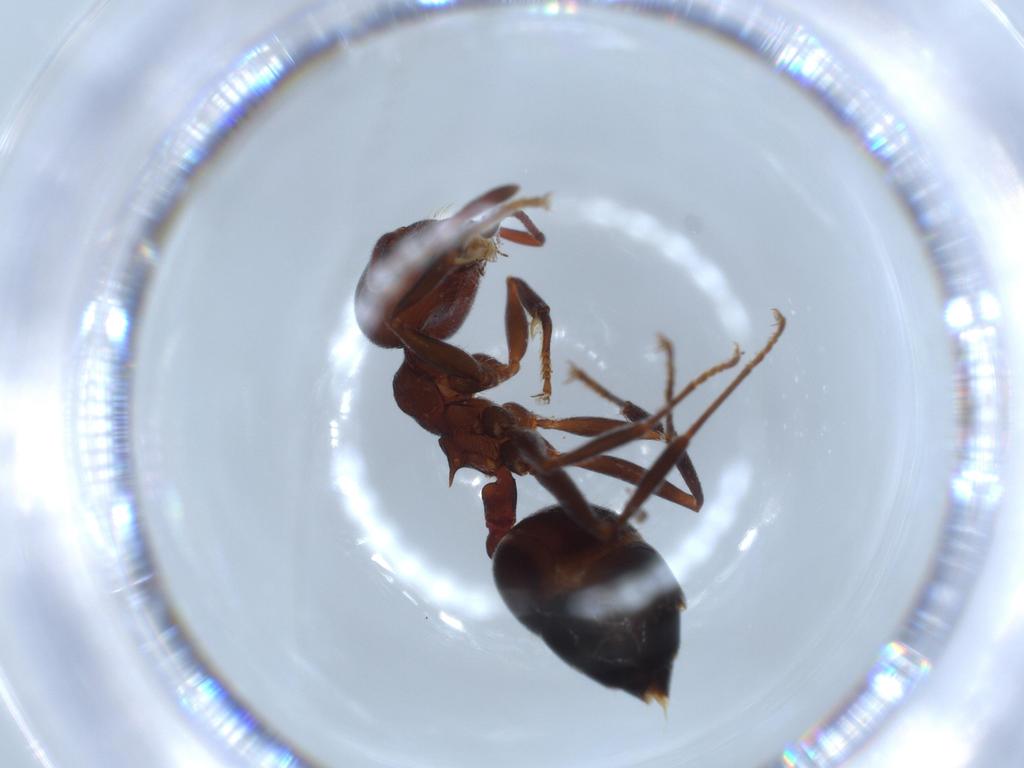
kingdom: Animalia
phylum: Arthropoda
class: Insecta
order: Hymenoptera
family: Formicidae
